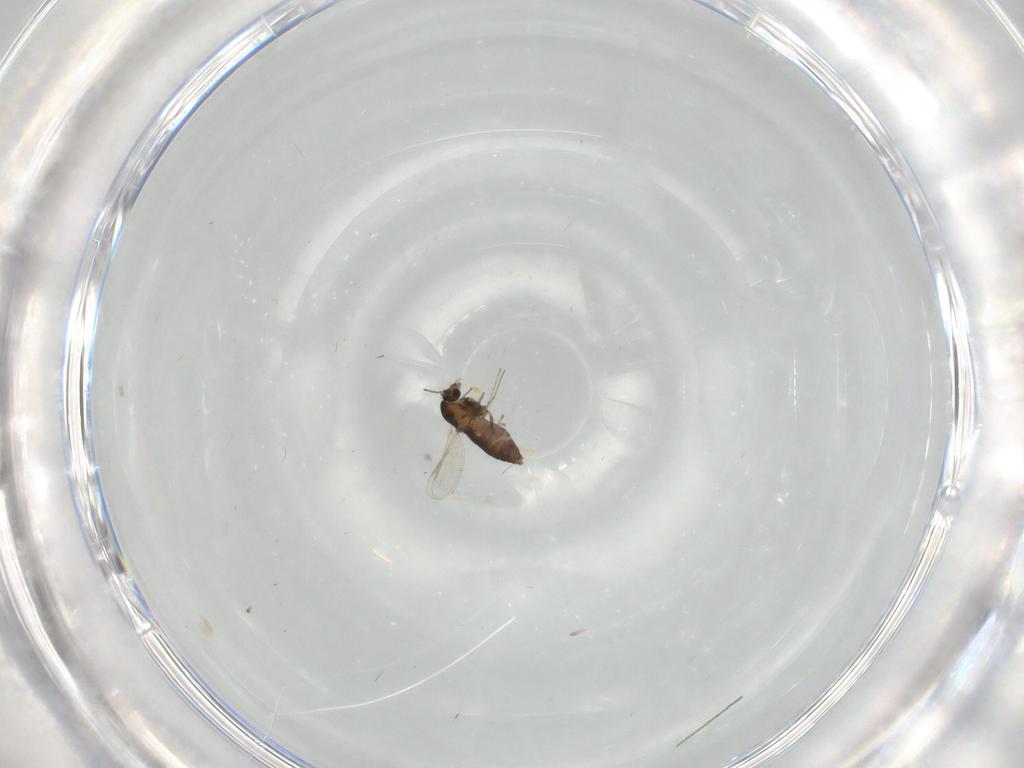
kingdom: Animalia
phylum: Arthropoda
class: Insecta
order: Diptera
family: Chironomidae
